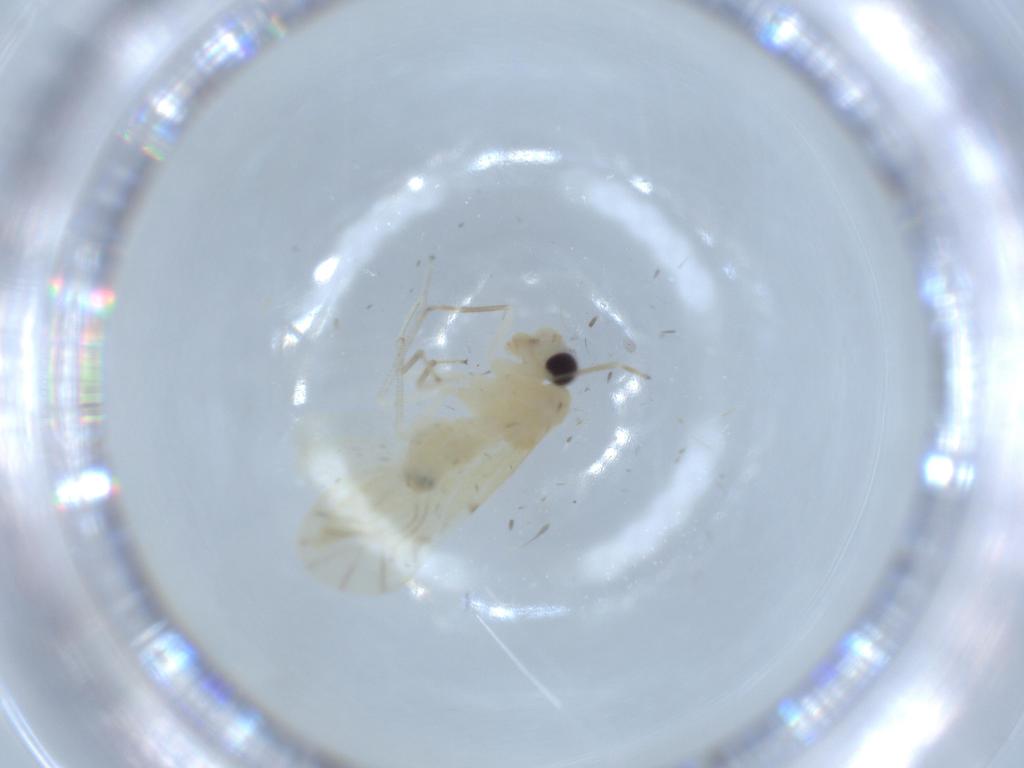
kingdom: Animalia
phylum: Arthropoda
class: Insecta
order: Psocodea
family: Caeciliusidae
